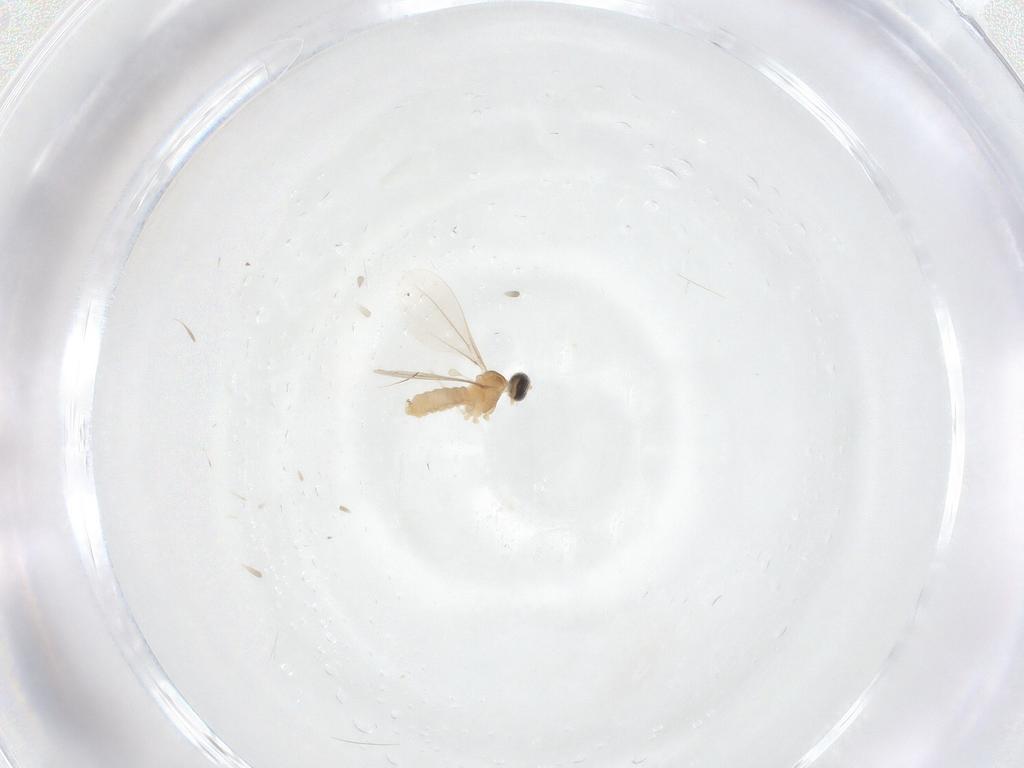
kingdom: Animalia
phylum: Arthropoda
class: Insecta
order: Diptera
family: Cecidomyiidae
